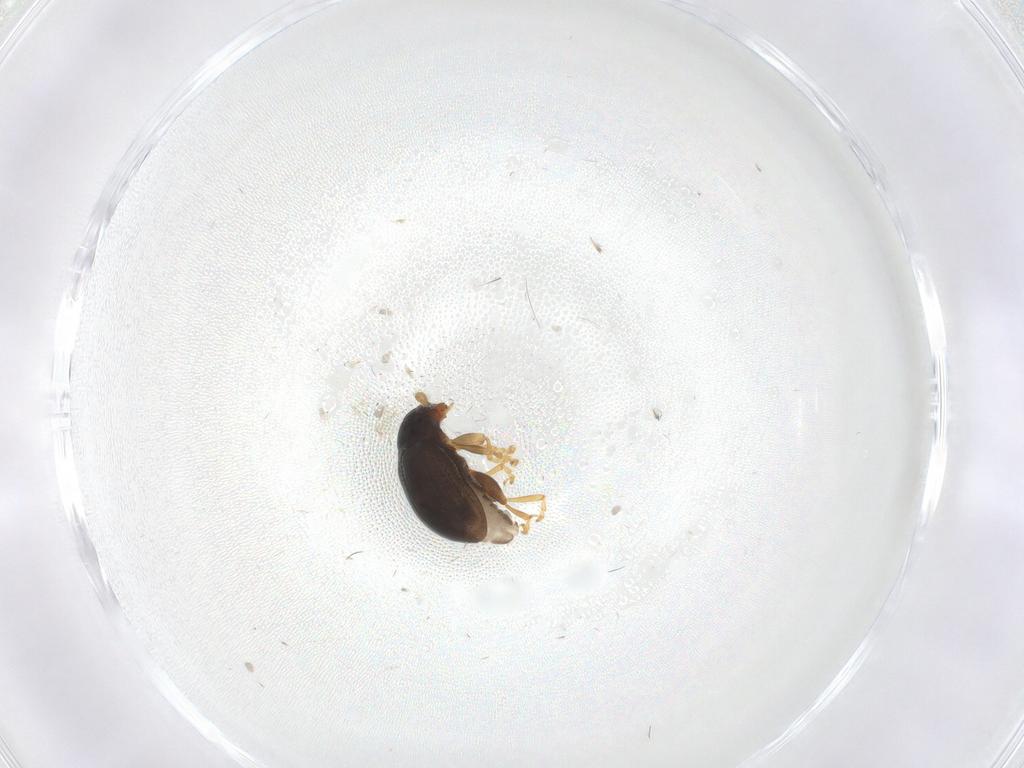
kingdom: Animalia
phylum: Arthropoda
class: Insecta
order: Coleoptera
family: Chrysomelidae
